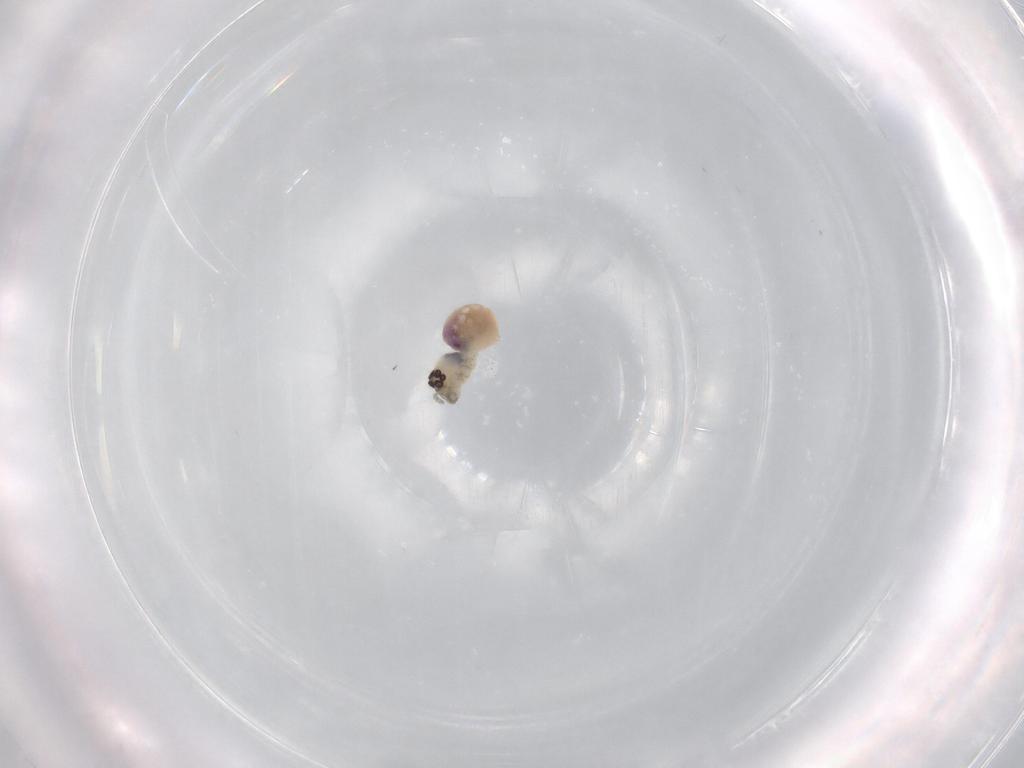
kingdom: Animalia
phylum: Arthropoda
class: Arachnida
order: Araneae
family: Pholcidae
